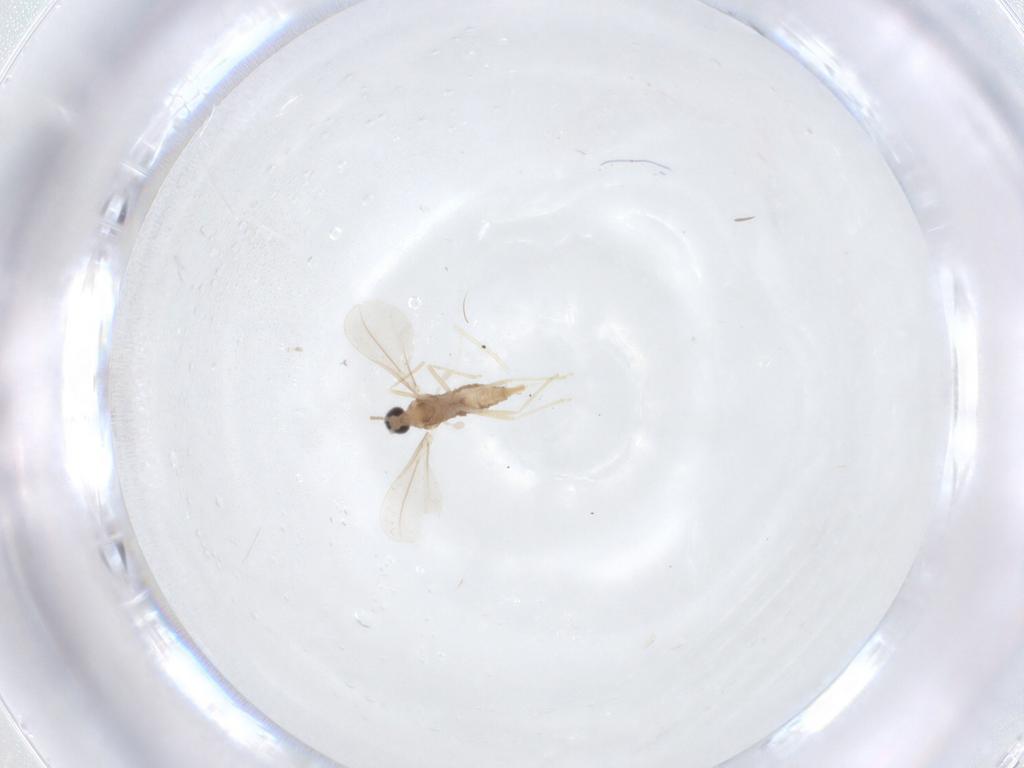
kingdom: Animalia
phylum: Arthropoda
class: Insecta
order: Diptera
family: Cecidomyiidae
